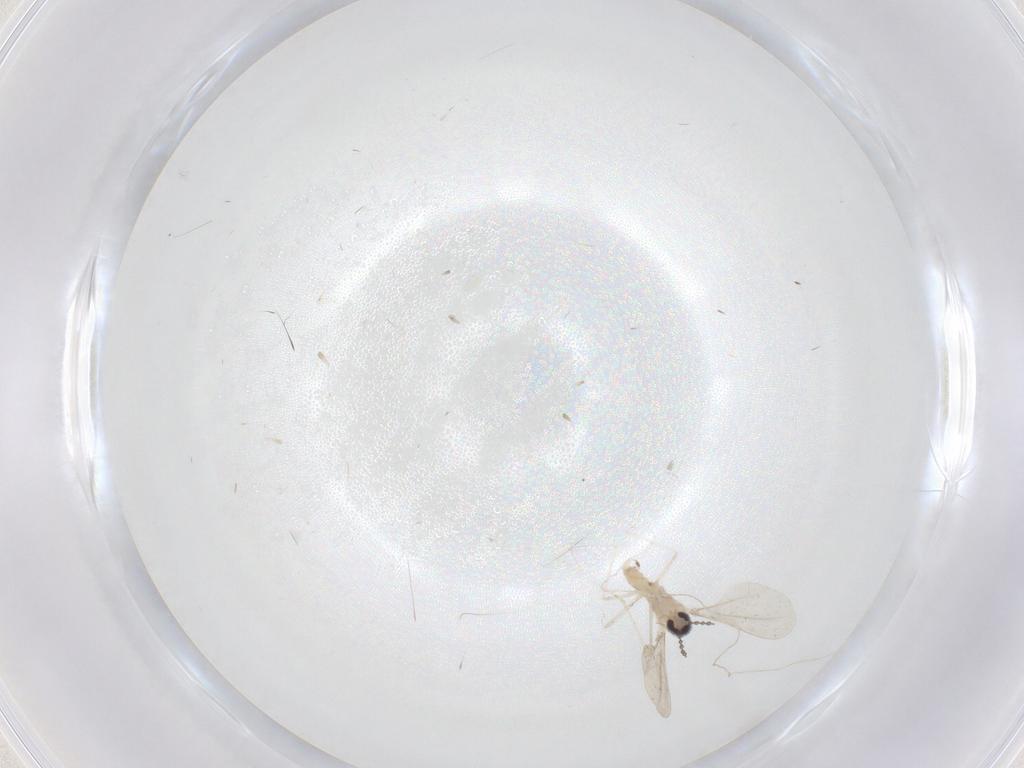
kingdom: Animalia
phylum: Arthropoda
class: Insecta
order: Diptera
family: Cecidomyiidae
